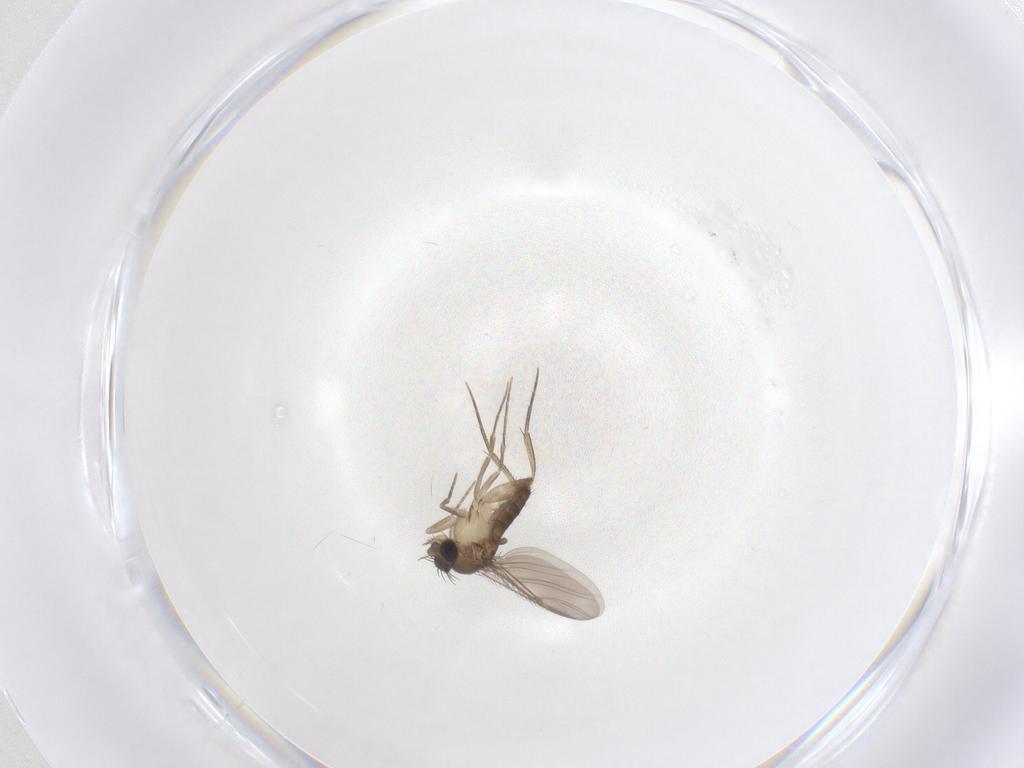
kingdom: Animalia
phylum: Arthropoda
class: Insecta
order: Diptera
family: Phoridae
